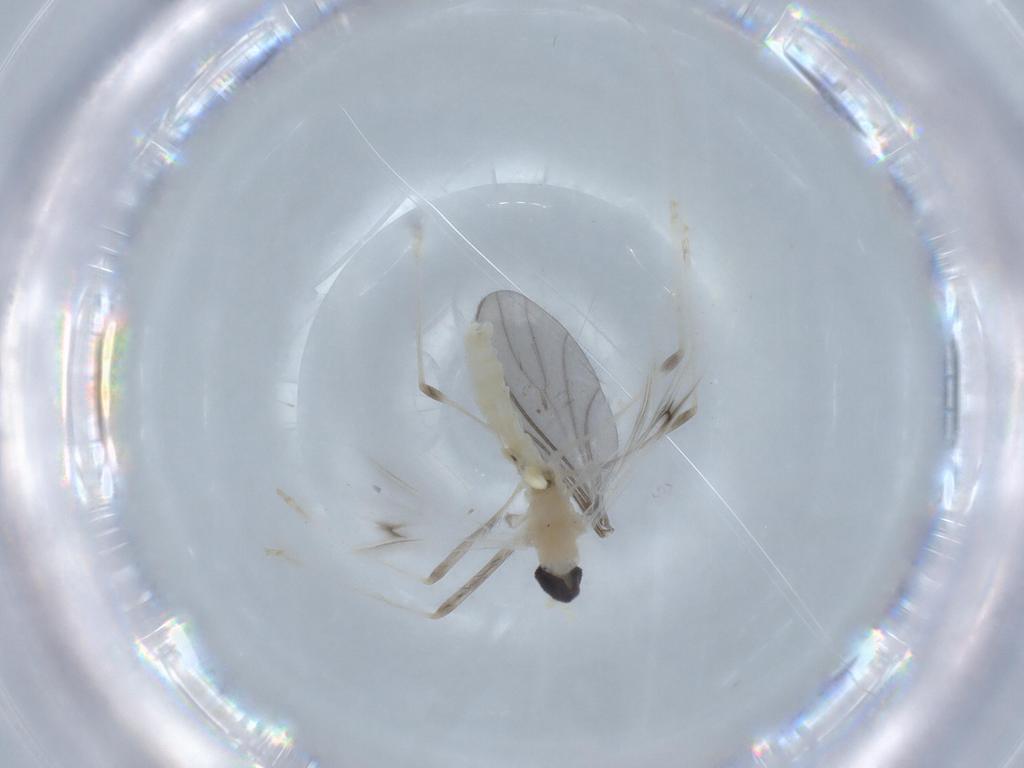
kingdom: Animalia
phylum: Arthropoda
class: Insecta
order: Diptera
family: Cecidomyiidae
